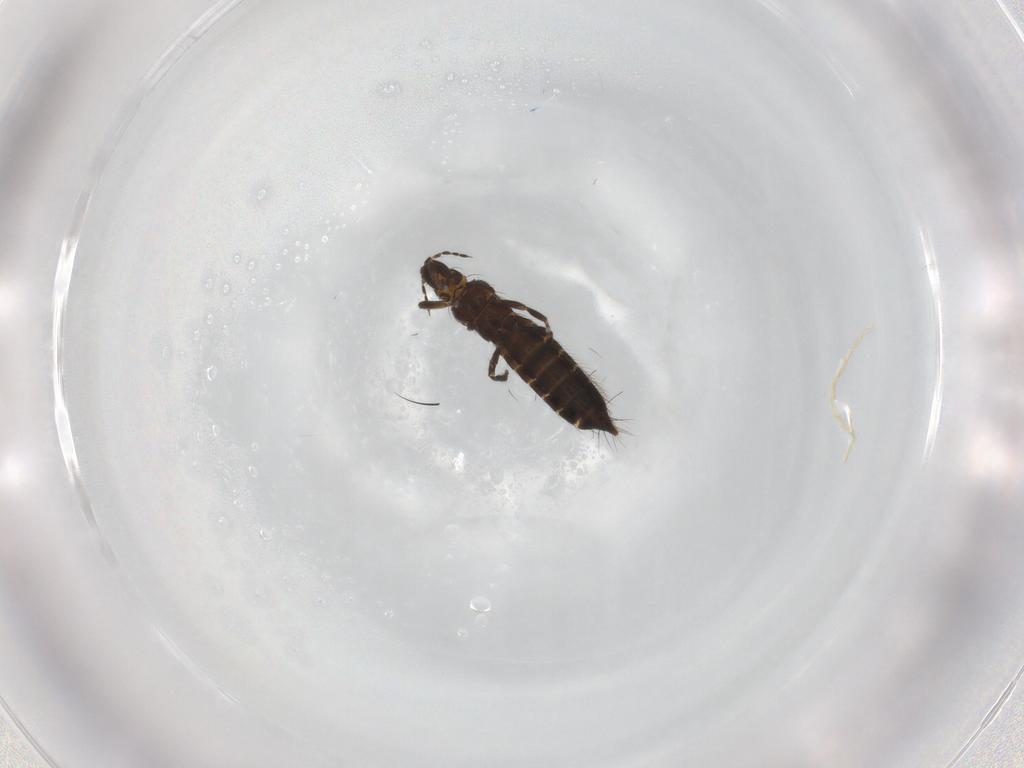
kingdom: Animalia
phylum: Arthropoda
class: Insecta
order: Thysanoptera
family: Thripidae
